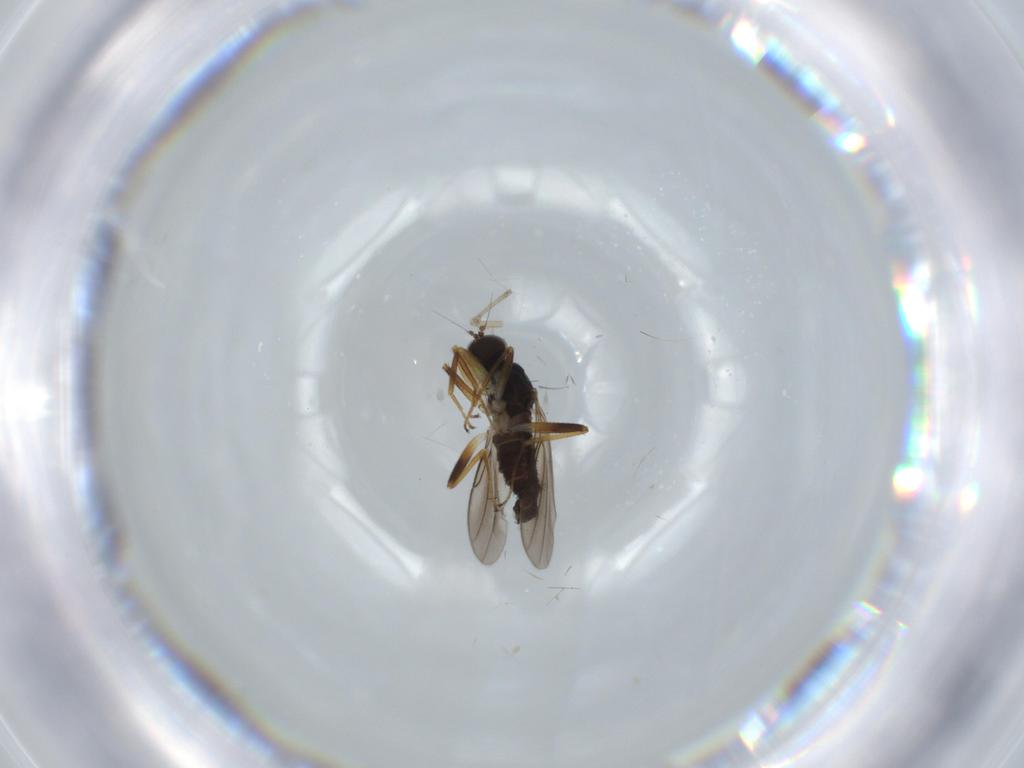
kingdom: Animalia
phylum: Arthropoda
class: Insecta
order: Diptera
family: Hybotidae
